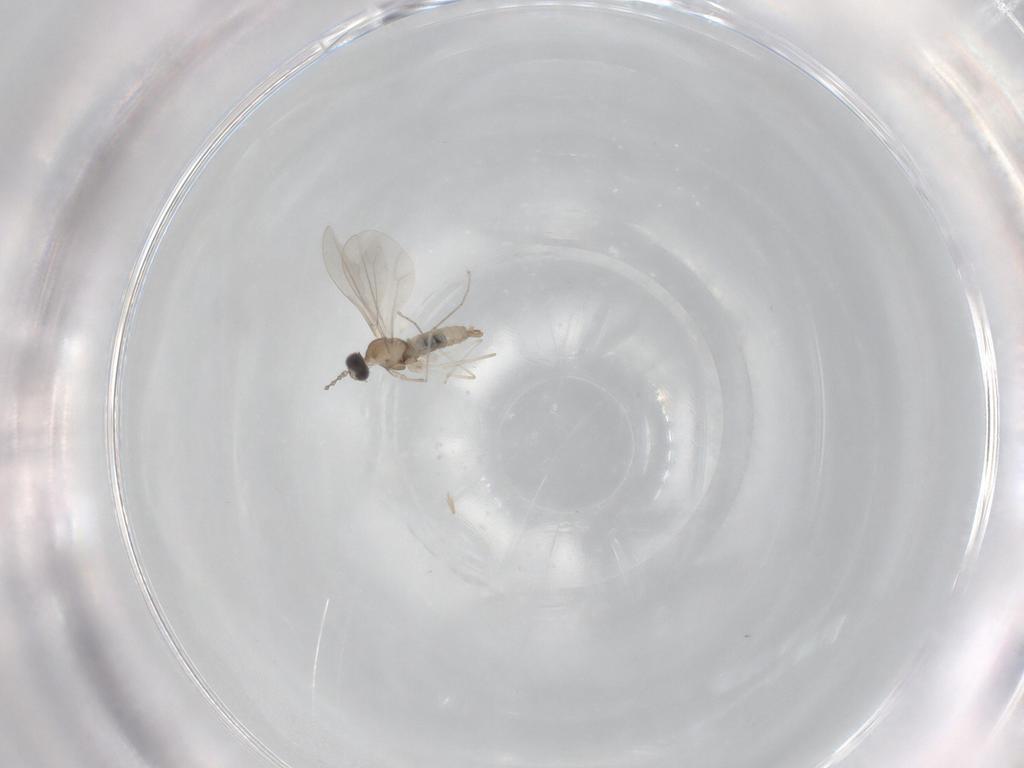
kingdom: Animalia
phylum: Arthropoda
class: Insecta
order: Diptera
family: Cecidomyiidae
